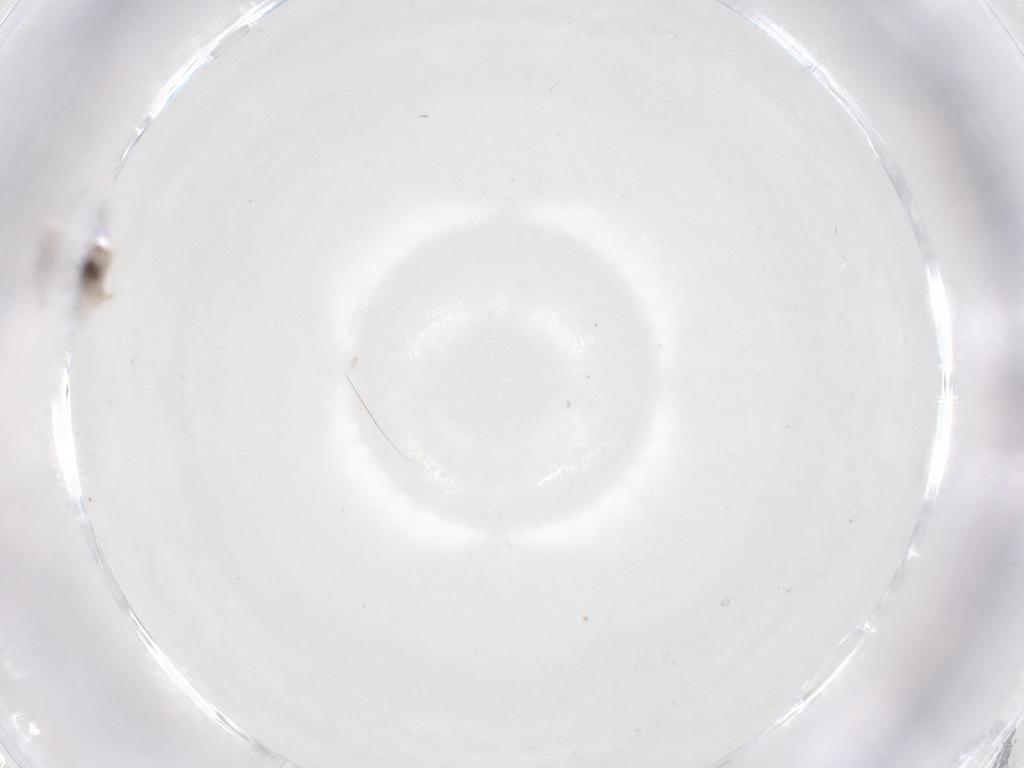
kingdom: Animalia
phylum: Arthropoda
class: Insecta
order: Diptera
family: Cecidomyiidae
